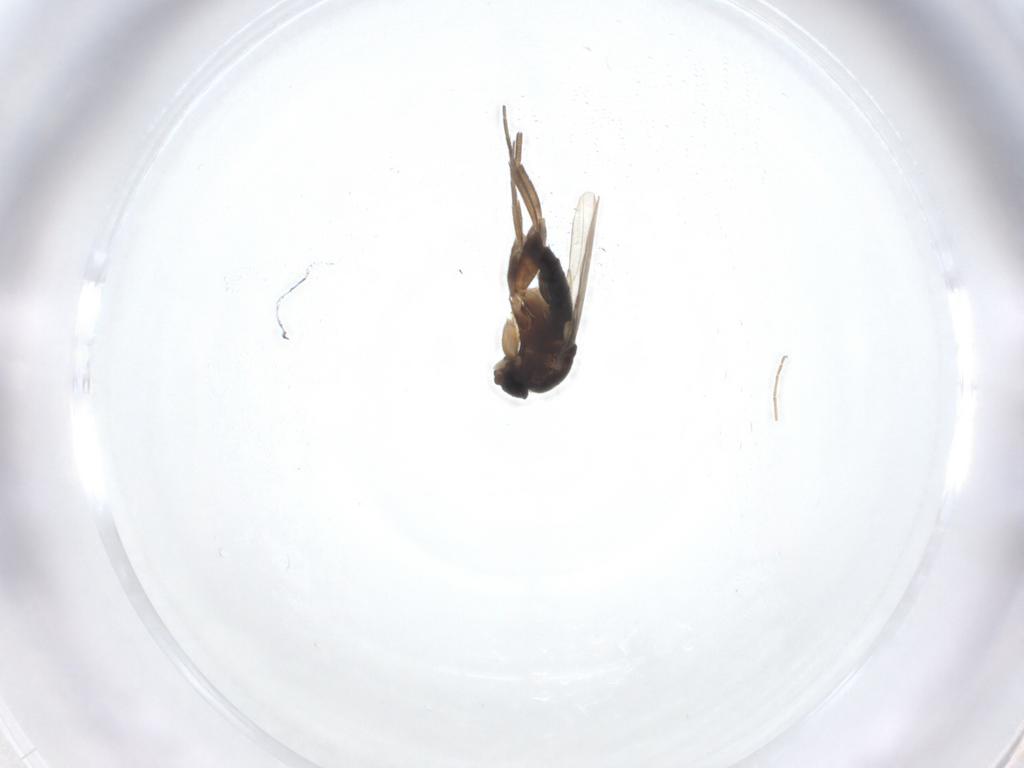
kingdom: Animalia
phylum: Arthropoda
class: Insecta
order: Diptera
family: Phoridae
